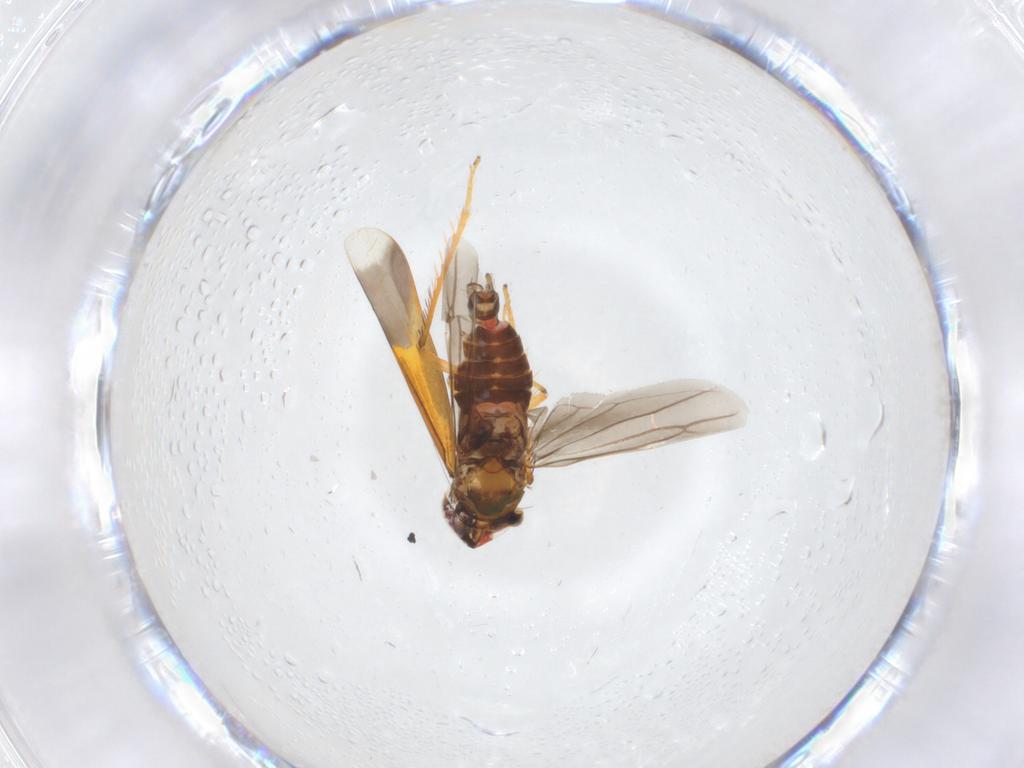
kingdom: Animalia
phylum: Arthropoda
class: Insecta
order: Hemiptera
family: Cicadellidae
